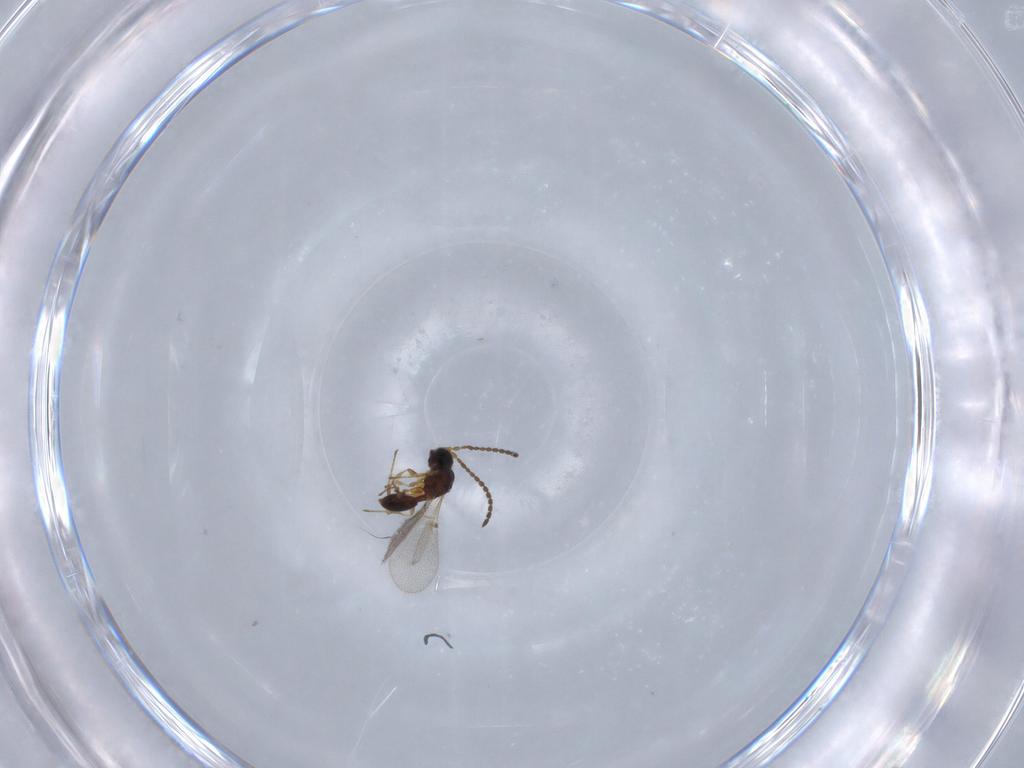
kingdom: Animalia
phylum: Arthropoda
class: Insecta
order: Hymenoptera
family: Diapriidae
